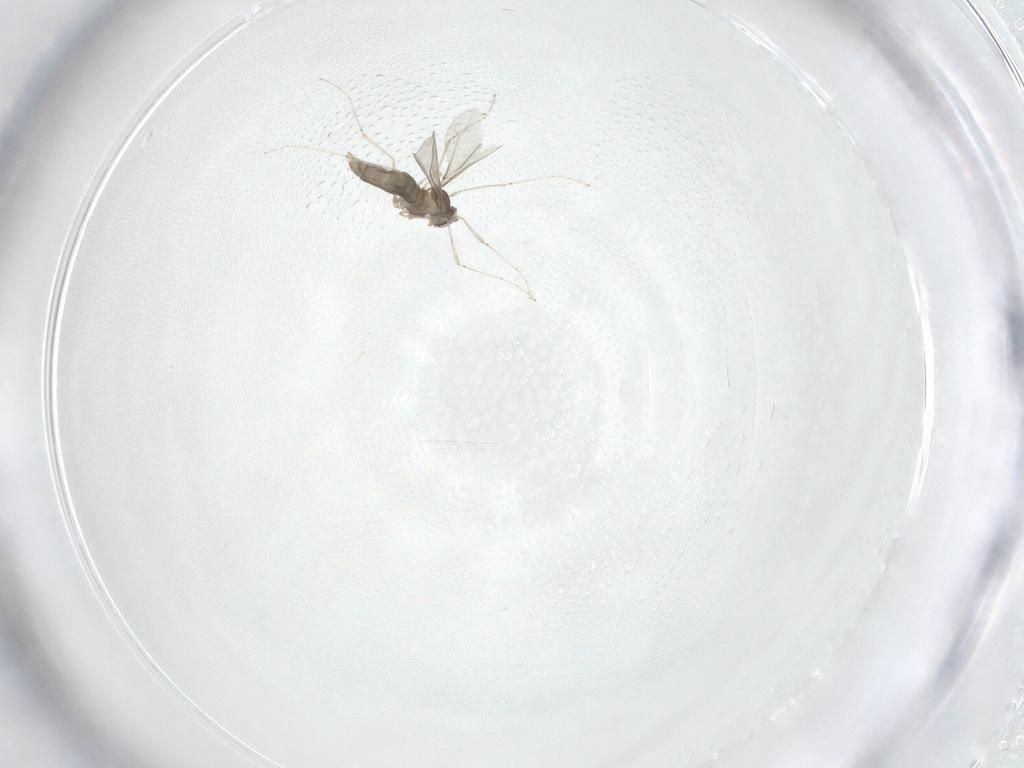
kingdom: Animalia
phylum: Arthropoda
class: Insecta
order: Diptera
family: Cecidomyiidae
